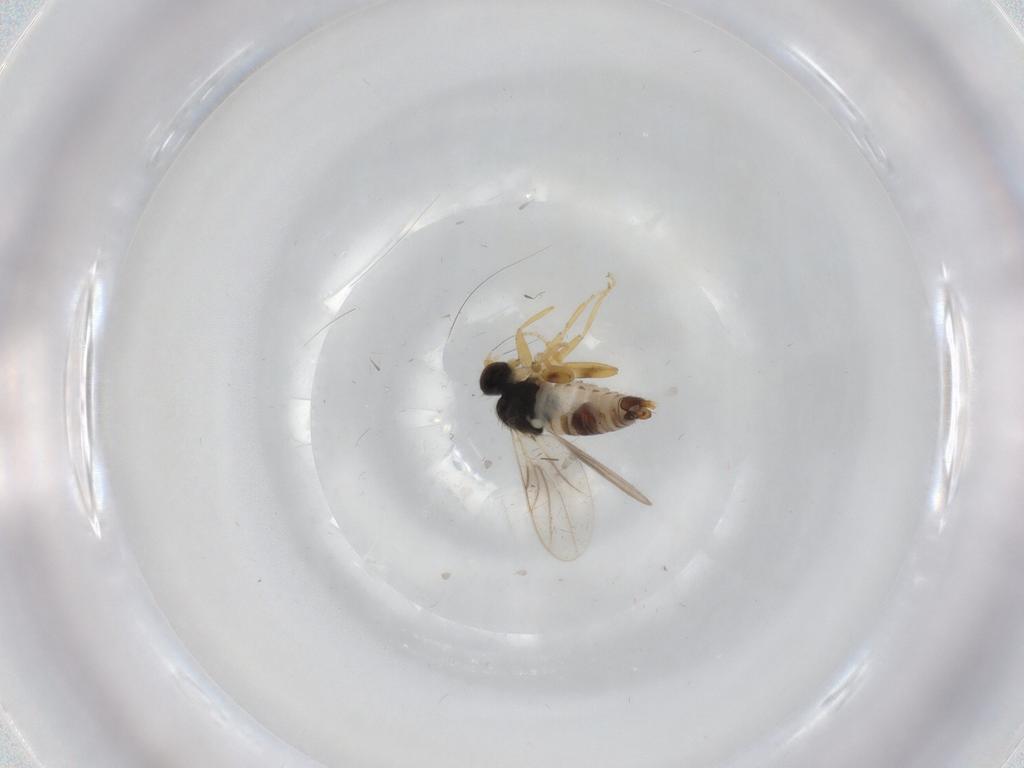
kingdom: Animalia
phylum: Arthropoda
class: Insecta
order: Diptera
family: Hybotidae
